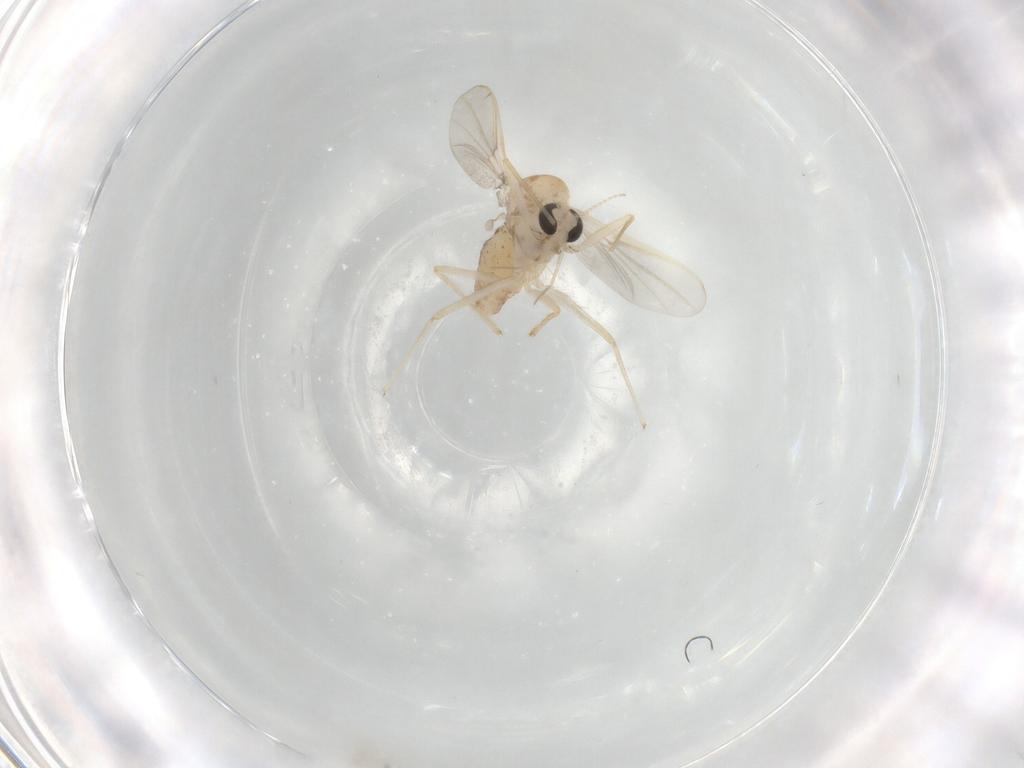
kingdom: Animalia
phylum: Arthropoda
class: Insecta
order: Diptera
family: Chironomidae
